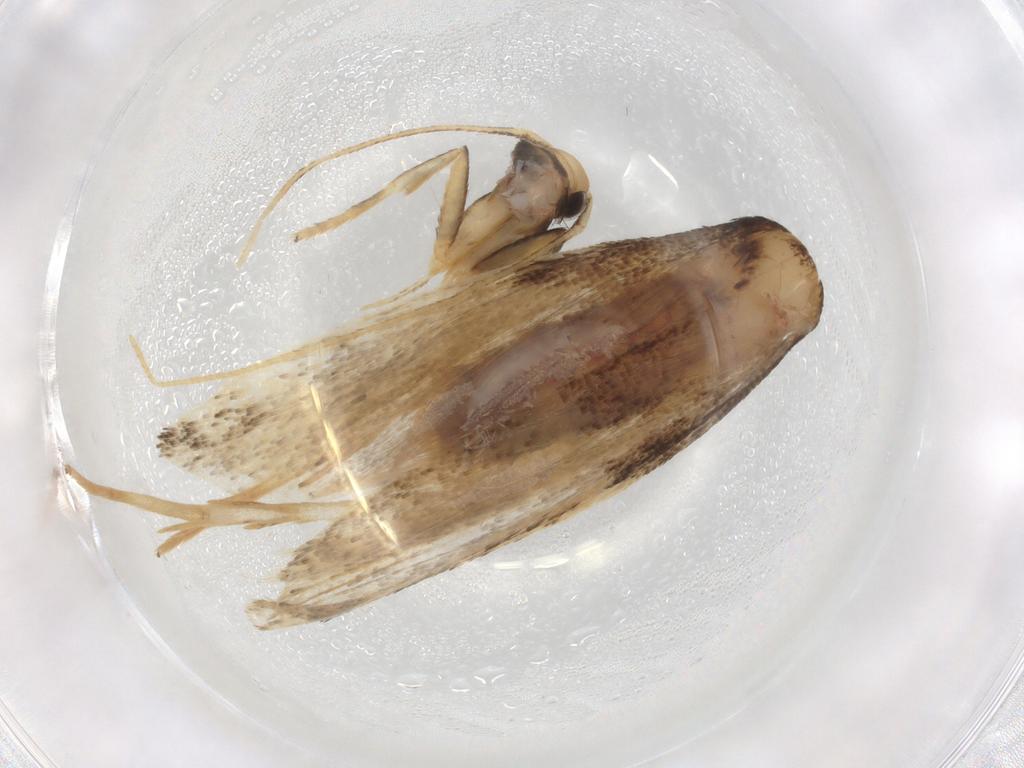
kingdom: Animalia
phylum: Arthropoda
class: Insecta
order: Lepidoptera
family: Lecithoceridae
